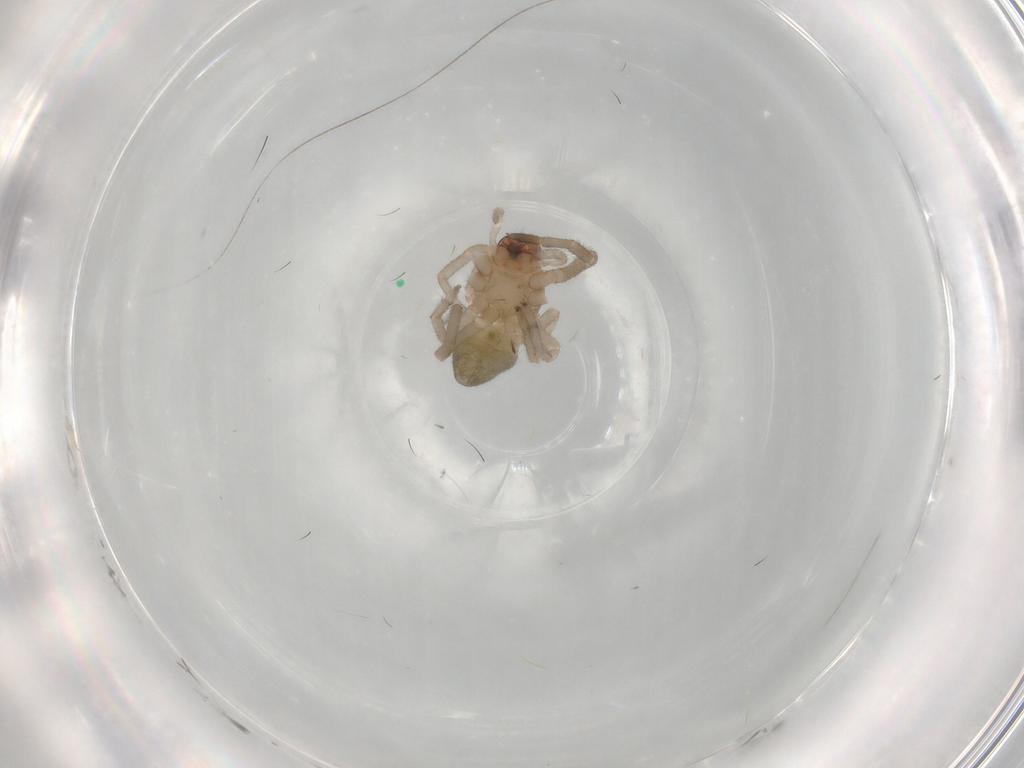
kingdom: Animalia
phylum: Arthropoda
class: Arachnida
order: Araneae
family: Trachelidae
